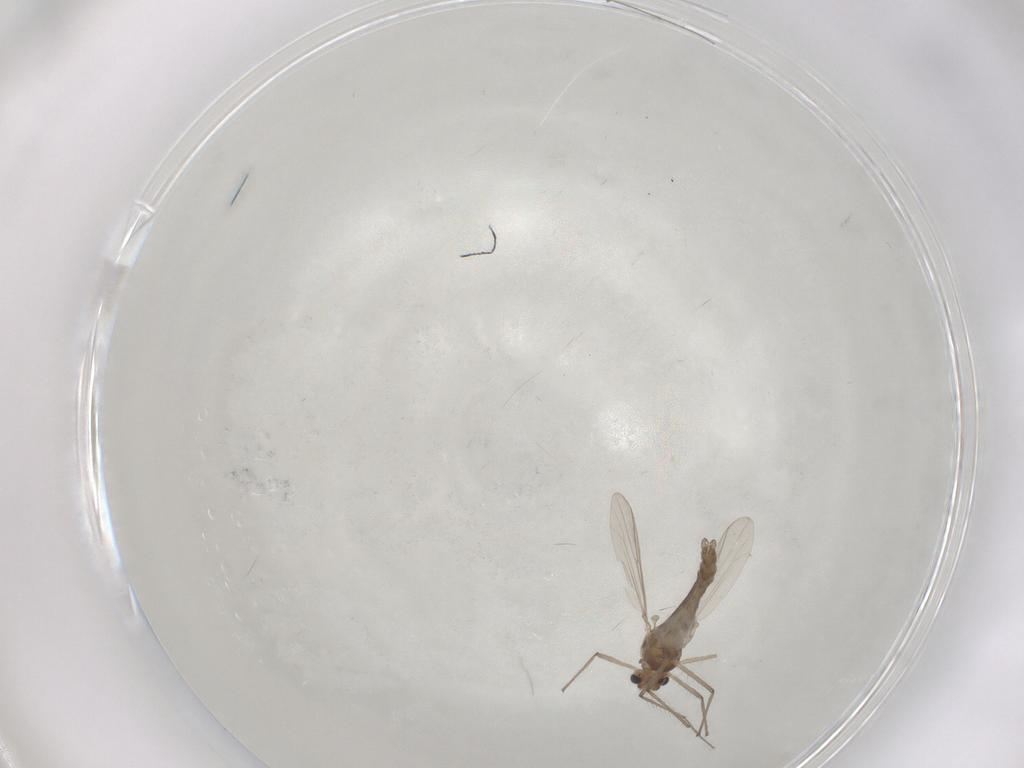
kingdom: Animalia
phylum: Arthropoda
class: Insecta
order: Diptera
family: Chironomidae
